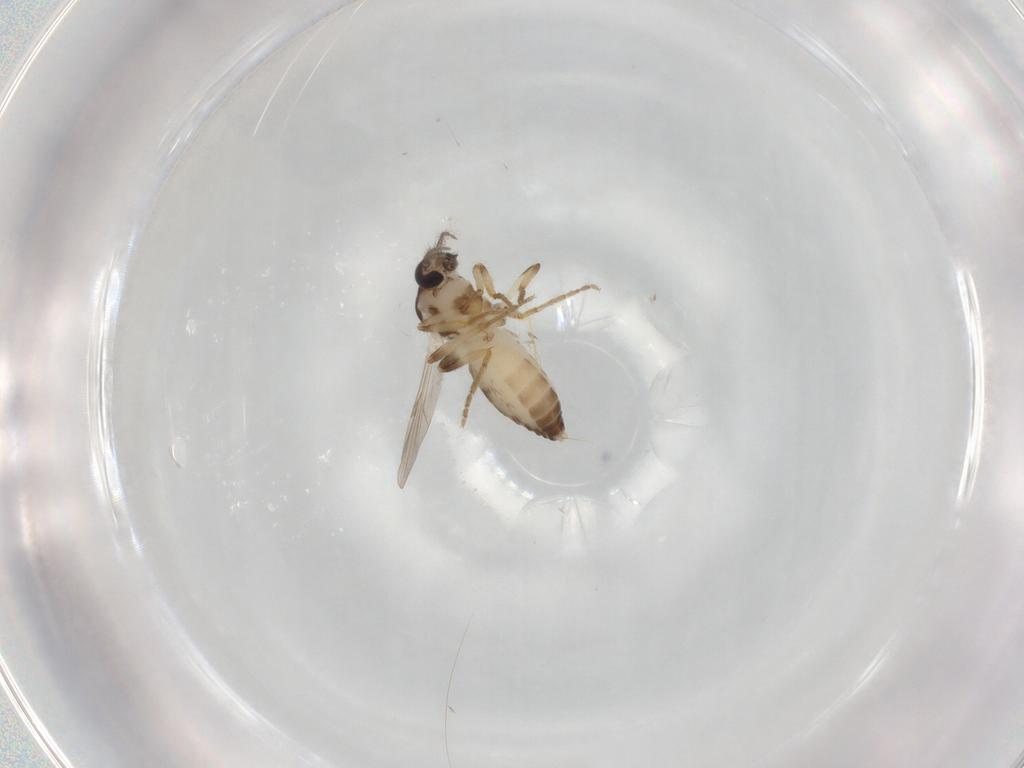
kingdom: Animalia
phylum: Arthropoda
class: Insecta
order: Diptera
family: Ceratopogonidae
